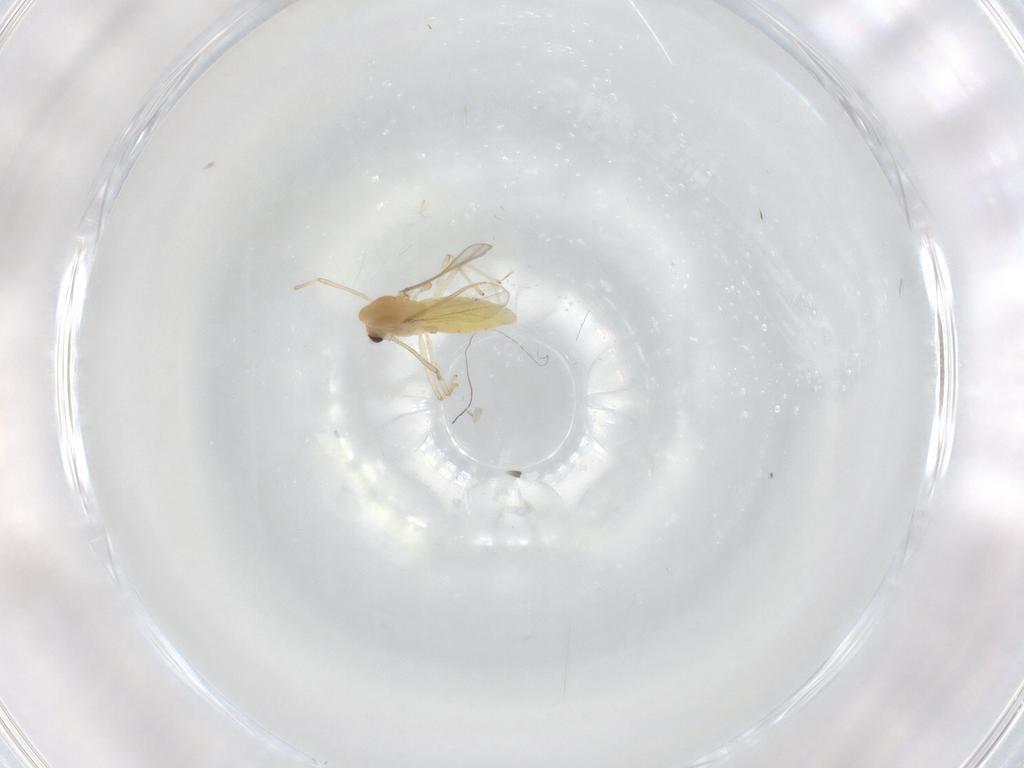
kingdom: Animalia
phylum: Arthropoda
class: Insecta
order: Diptera
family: Chironomidae
